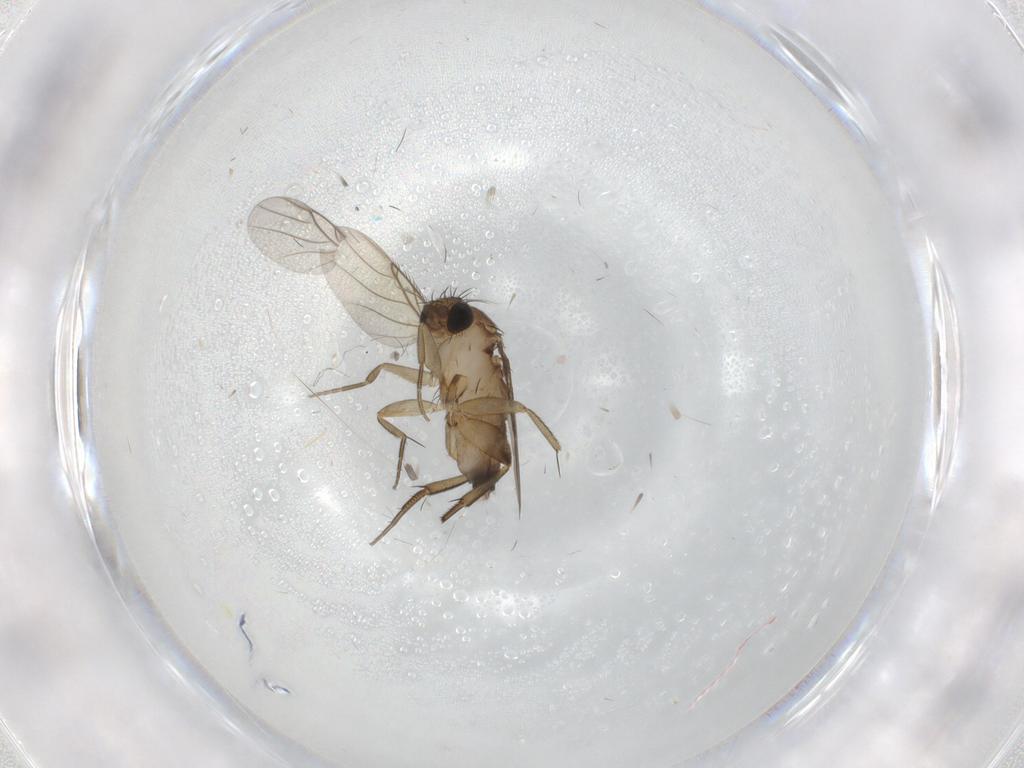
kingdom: Animalia
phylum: Arthropoda
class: Insecta
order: Diptera
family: Phoridae
